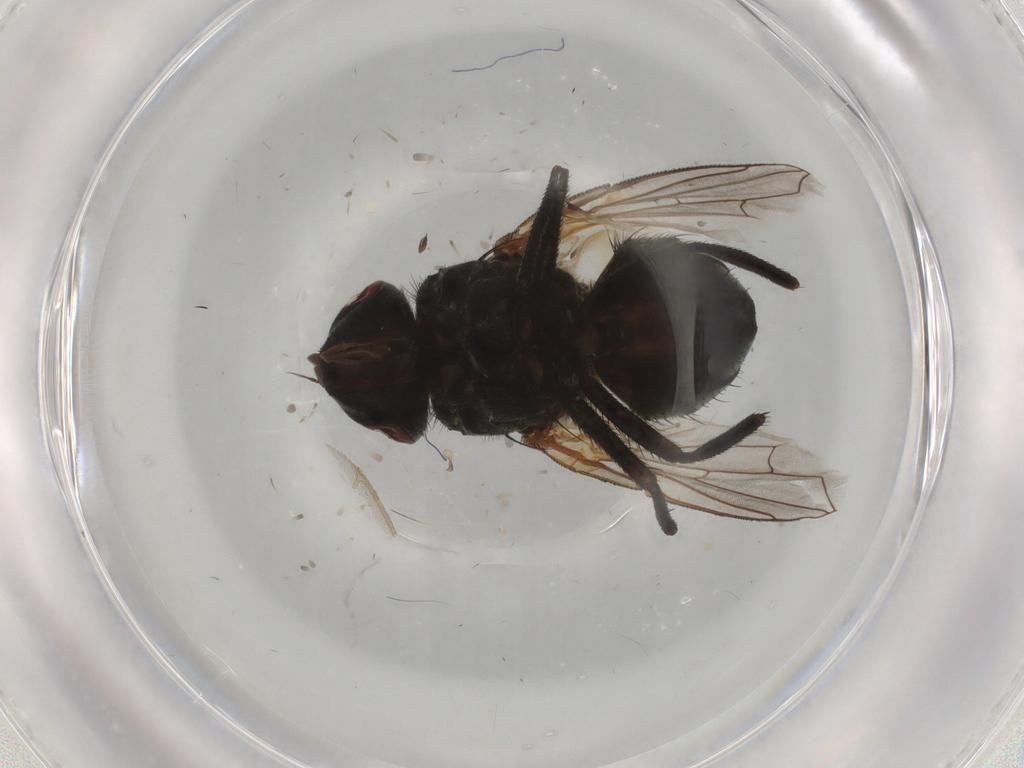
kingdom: Animalia
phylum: Arthropoda
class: Insecta
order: Diptera
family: Muscidae
